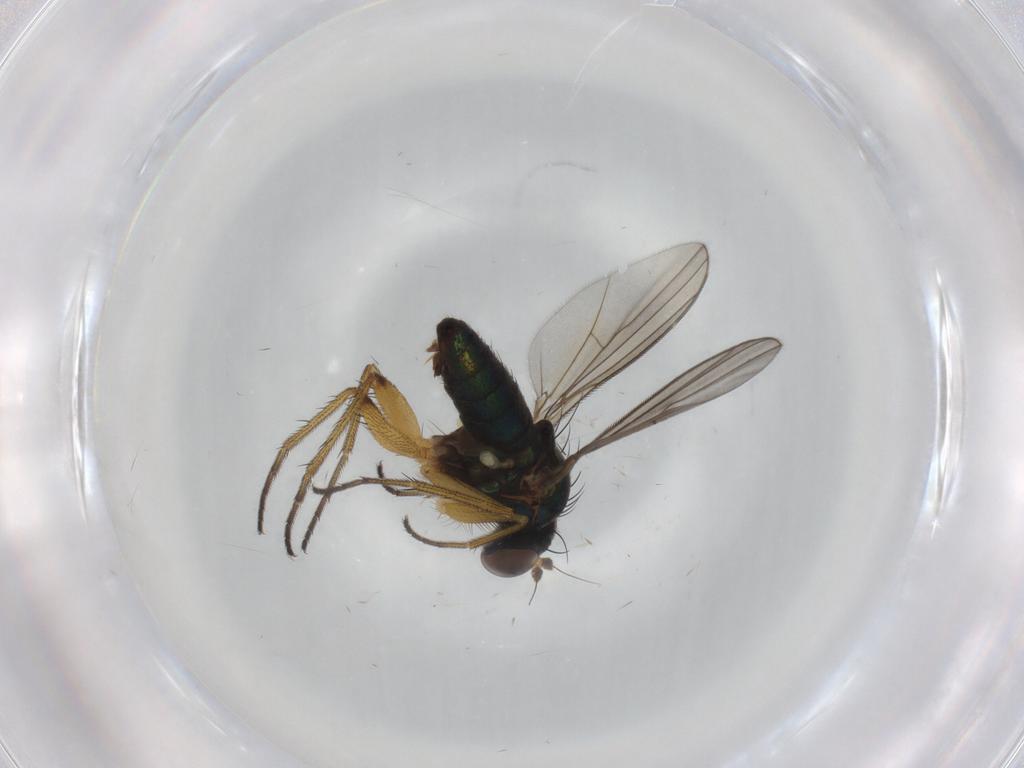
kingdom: Animalia
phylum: Arthropoda
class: Insecta
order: Diptera
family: Dolichopodidae
